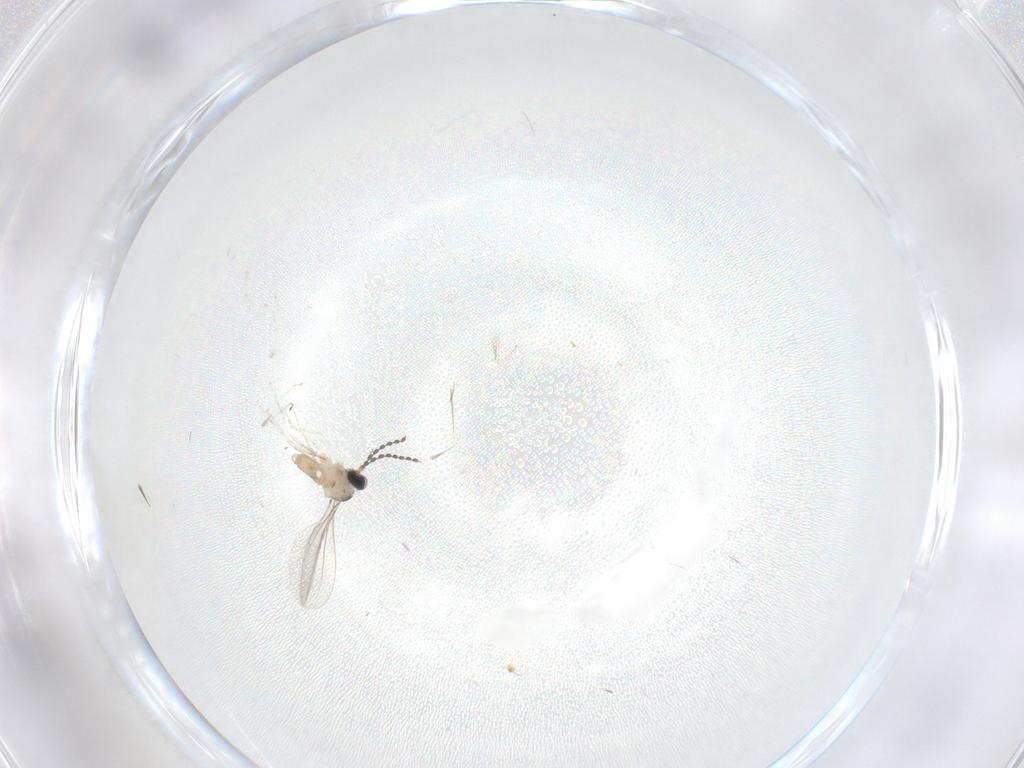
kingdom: Animalia
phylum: Arthropoda
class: Insecta
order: Diptera
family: Cecidomyiidae
